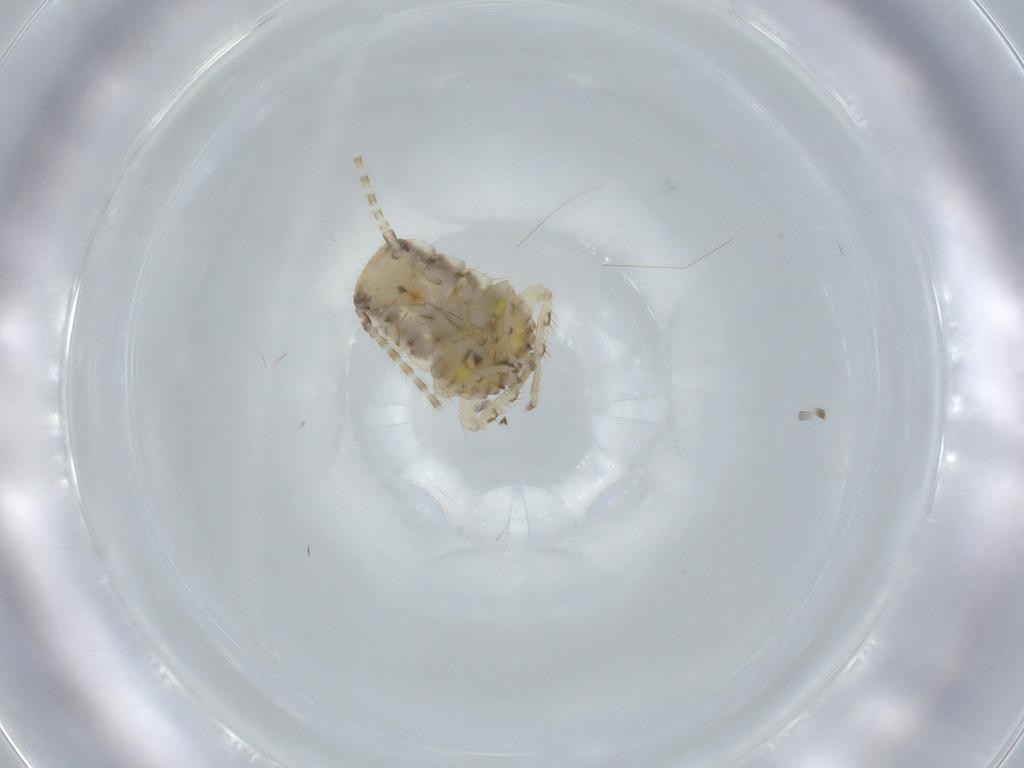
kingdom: Animalia
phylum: Arthropoda
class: Insecta
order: Blattodea
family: Ectobiidae
